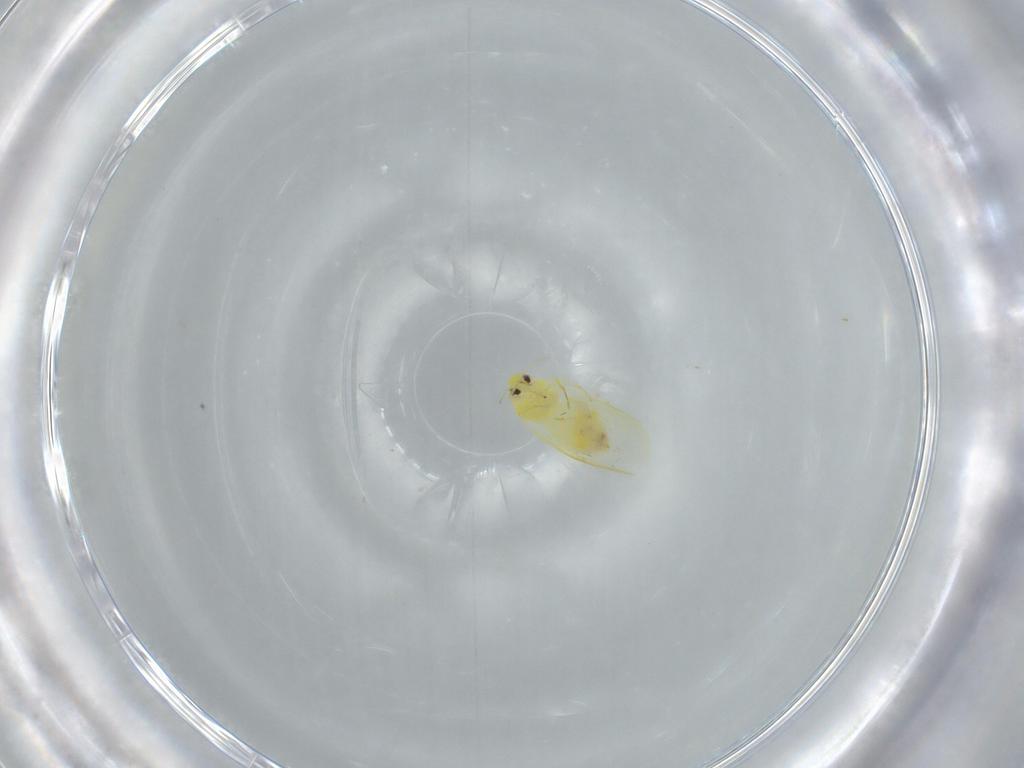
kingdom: Animalia
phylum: Arthropoda
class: Insecta
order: Hemiptera
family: Aleyrodidae
